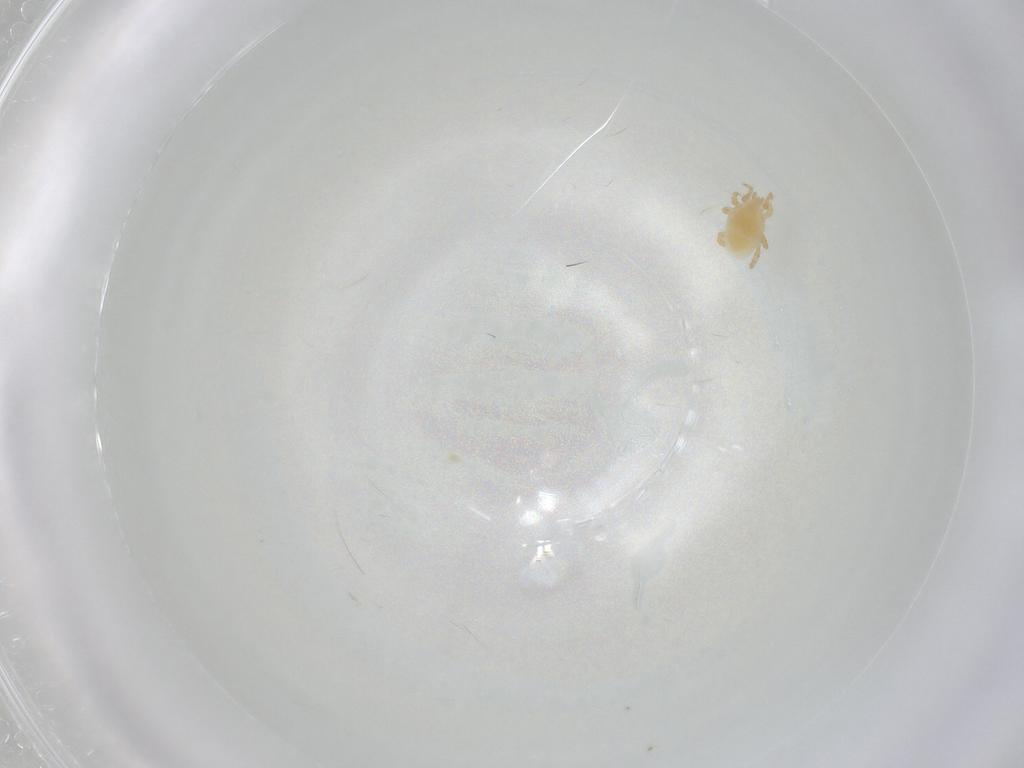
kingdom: Animalia
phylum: Arthropoda
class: Arachnida
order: Mesostigmata
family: Parasitidae
